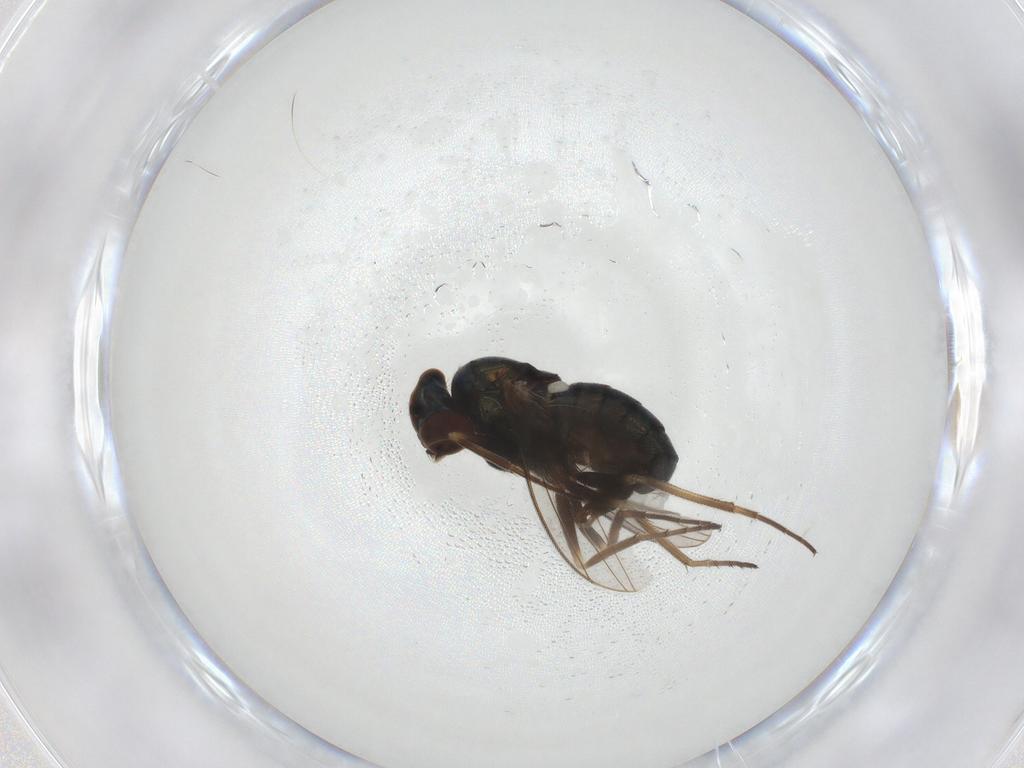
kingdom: Animalia
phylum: Arthropoda
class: Insecta
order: Diptera
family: Dolichopodidae
